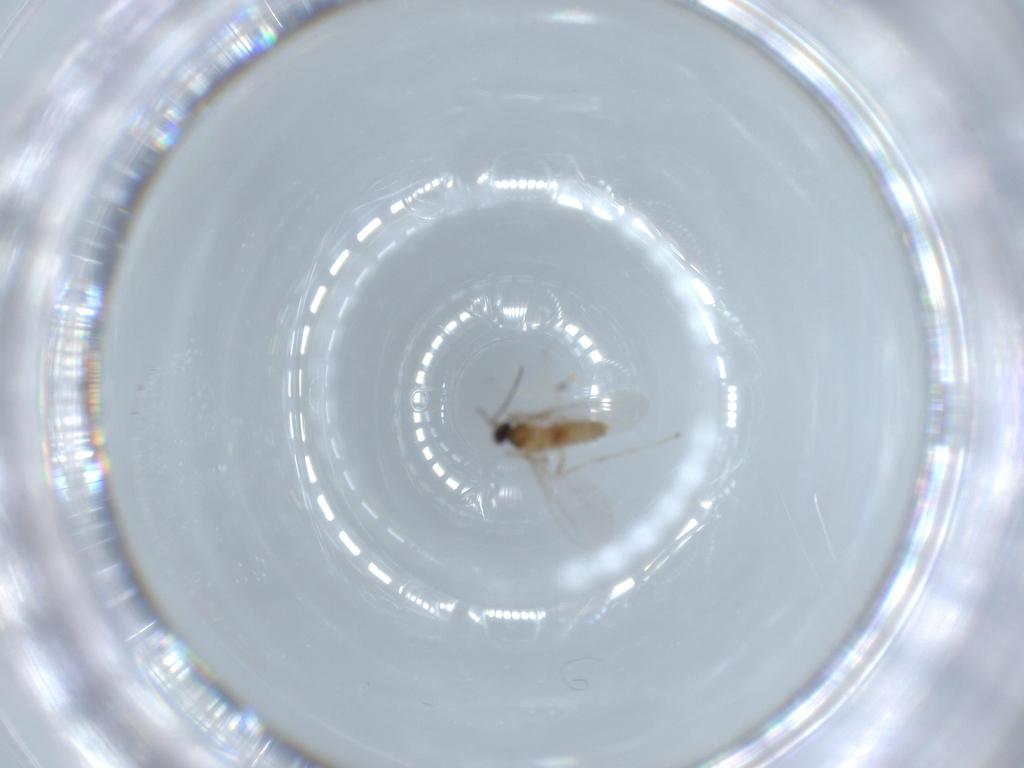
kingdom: Animalia
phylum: Arthropoda
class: Insecta
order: Diptera
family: Cecidomyiidae
